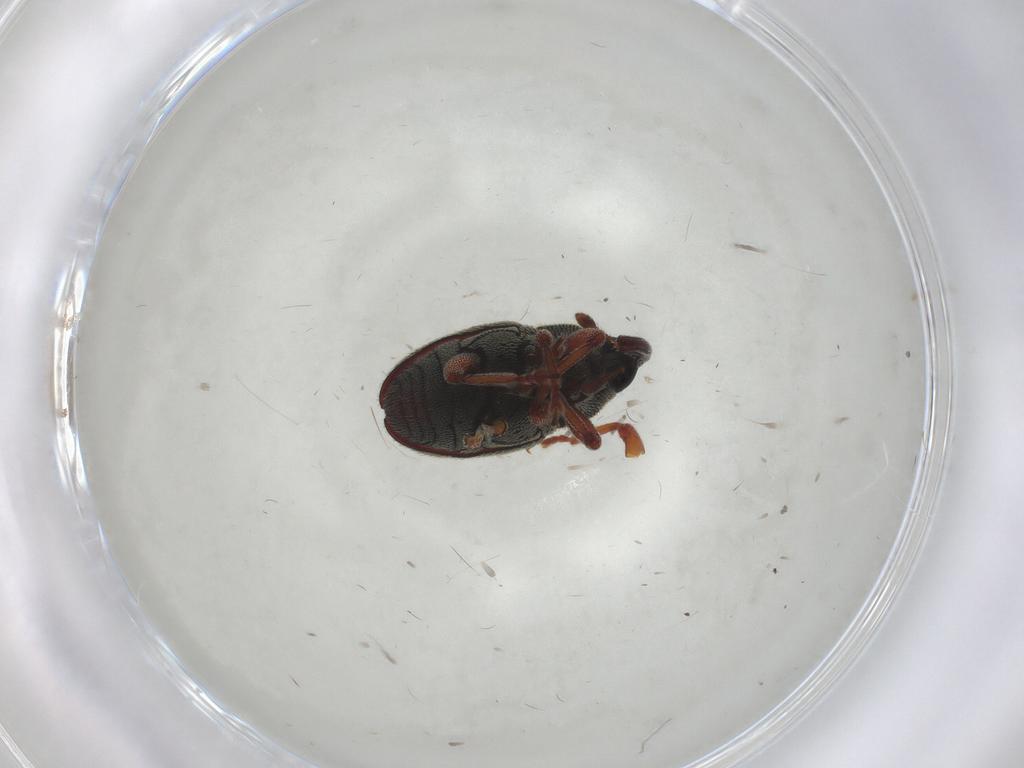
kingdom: Animalia
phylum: Arthropoda
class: Insecta
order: Coleoptera
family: Curculionidae
